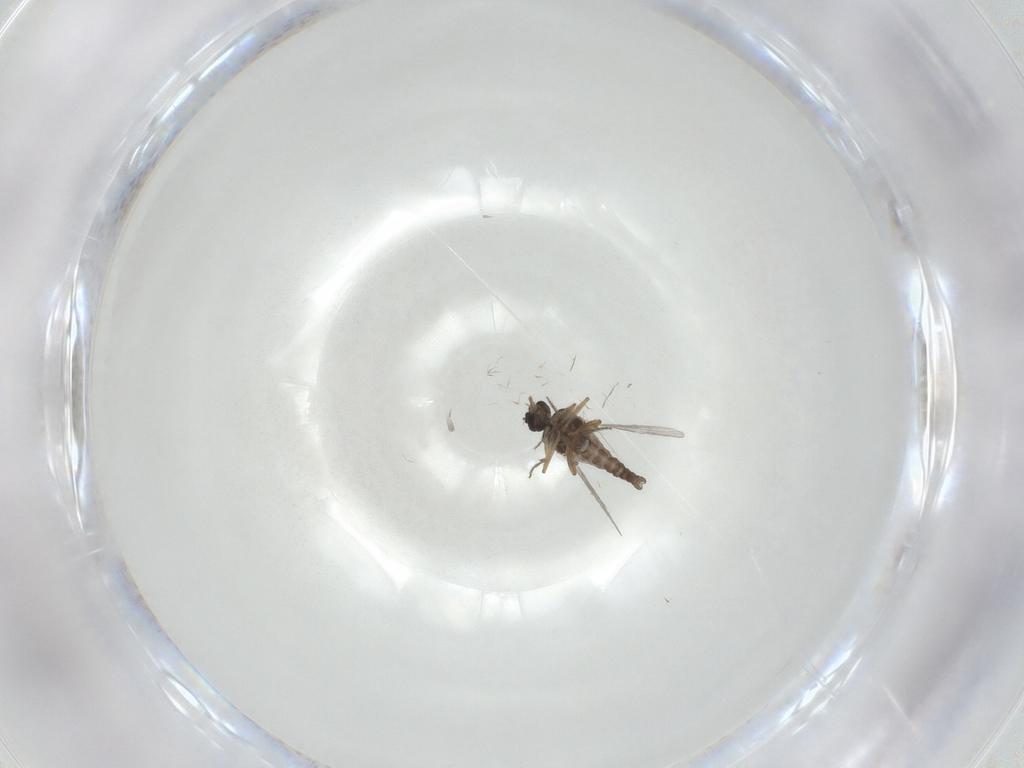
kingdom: Animalia
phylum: Arthropoda
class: Insecta
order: Diptera
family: Ceratopogonidae
